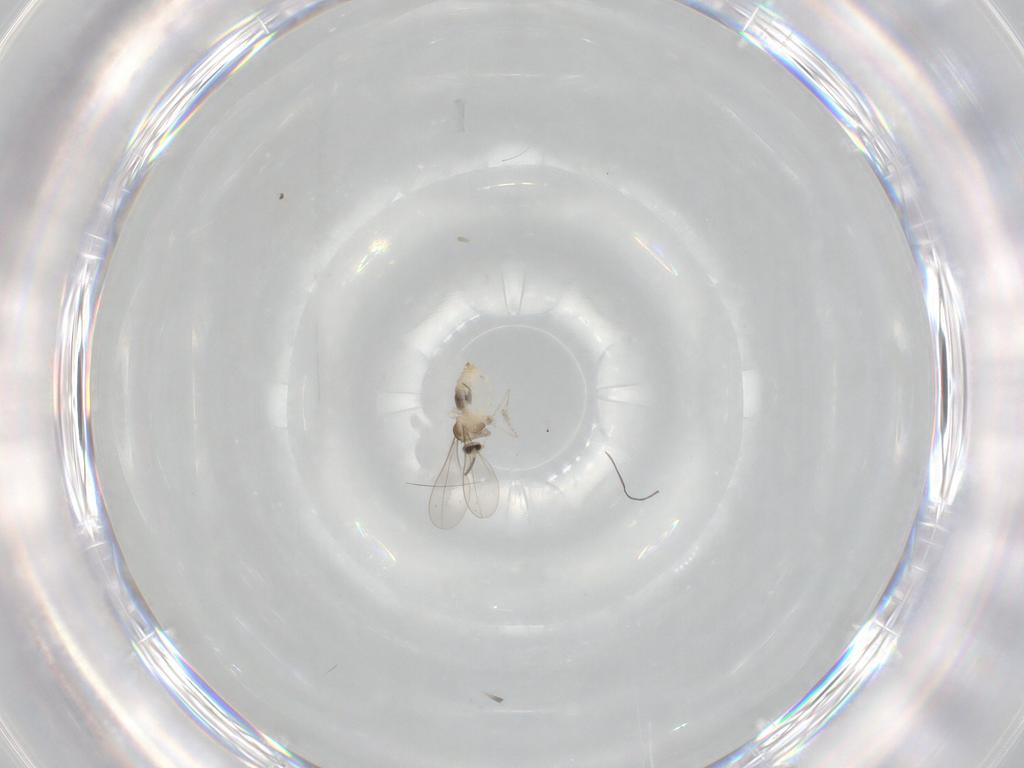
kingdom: Animalia
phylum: Arthropoda
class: Insecta
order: Diptera
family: Cecidomyiidae
